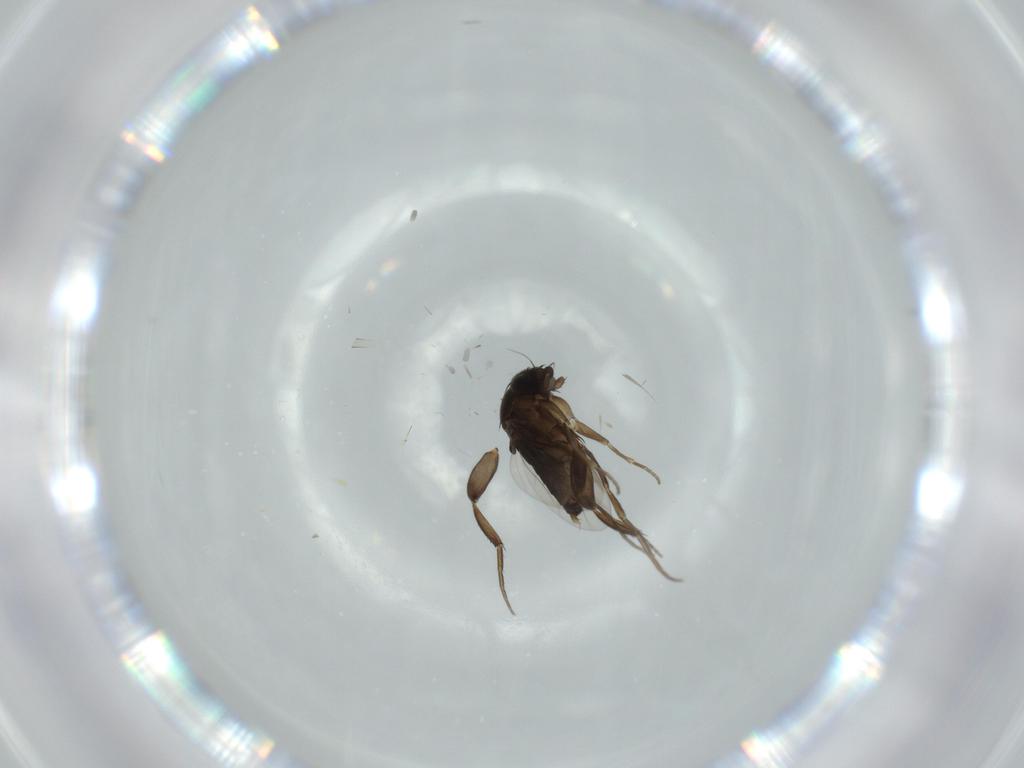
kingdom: Animalia
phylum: Arthropoda
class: Insecta
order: Diptera
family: Phoridae
